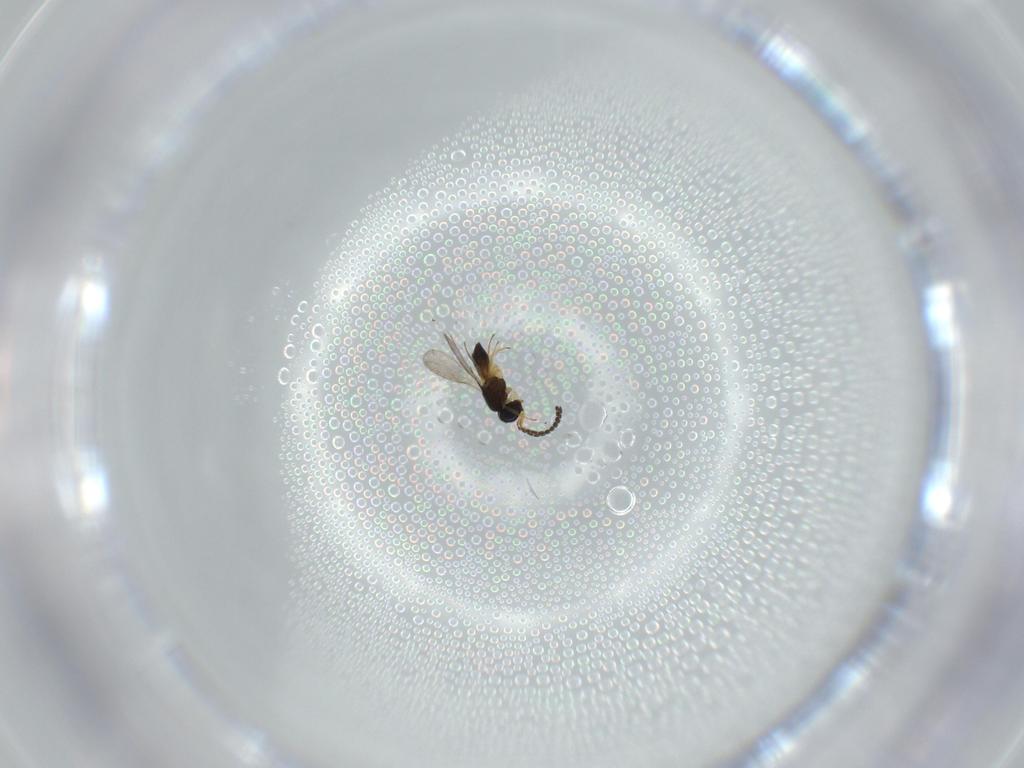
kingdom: Animalia
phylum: Arthropoda
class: Insecta
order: Hymenoptera
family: Scelionidae
